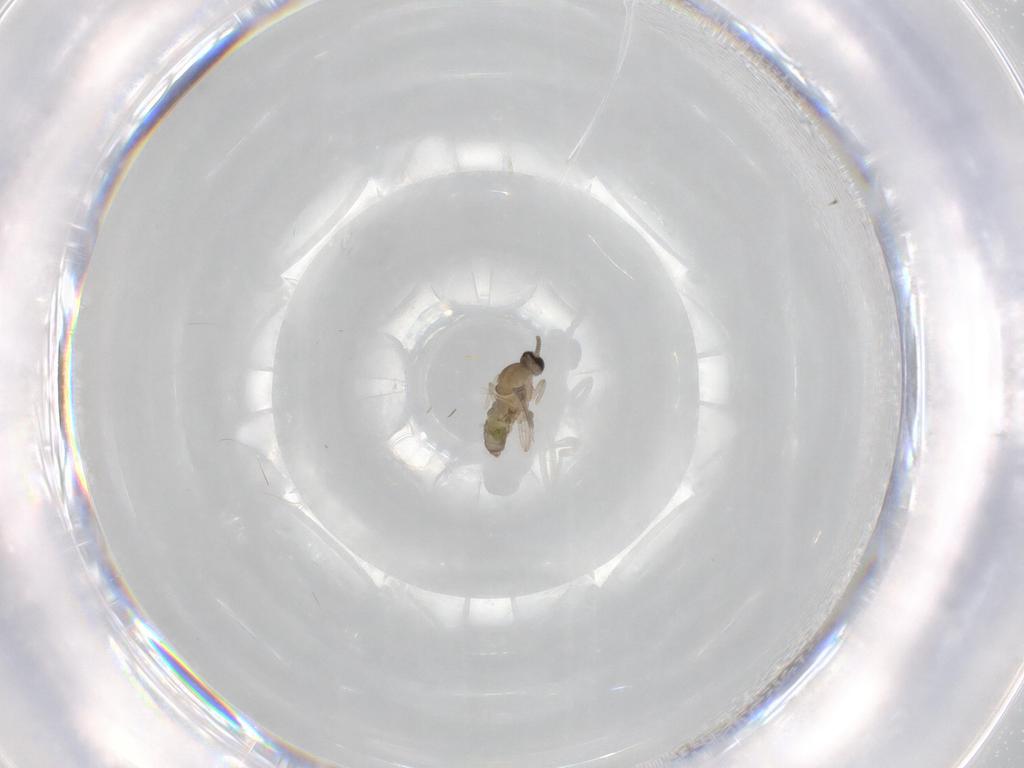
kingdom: Animalia
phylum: Arthropoda
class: Insecta
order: Diptera
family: Cecidomyiidae
